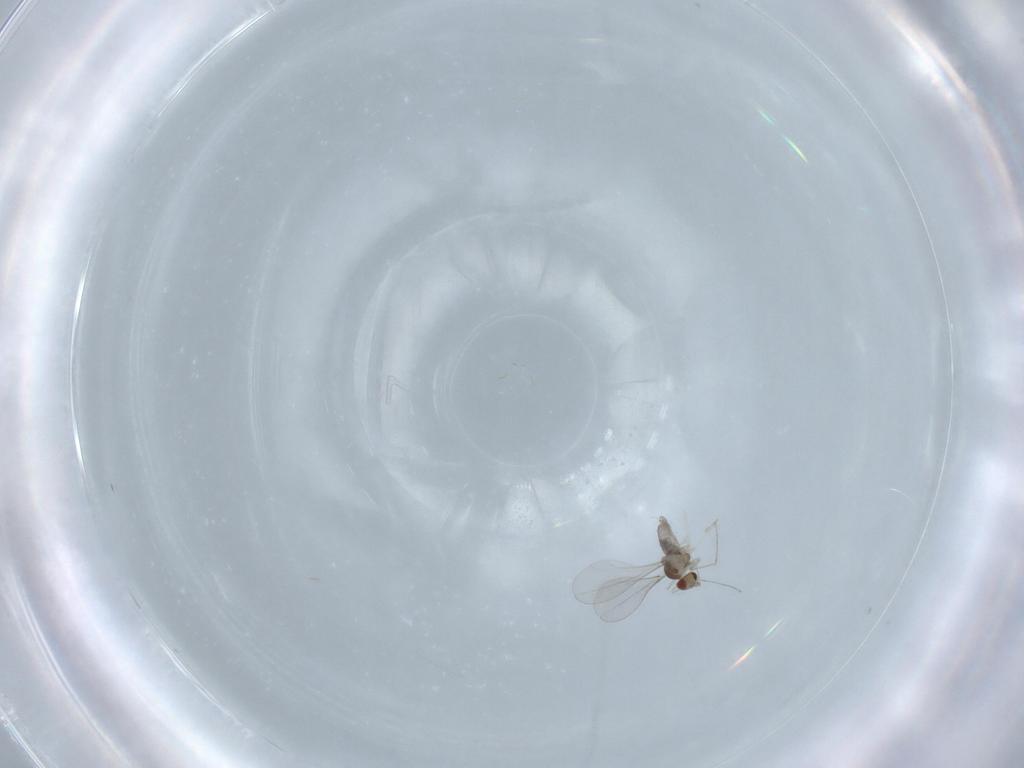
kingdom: Animalia
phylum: Arthropoda
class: Insecta
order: Diptera
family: Cecidomyiidae
